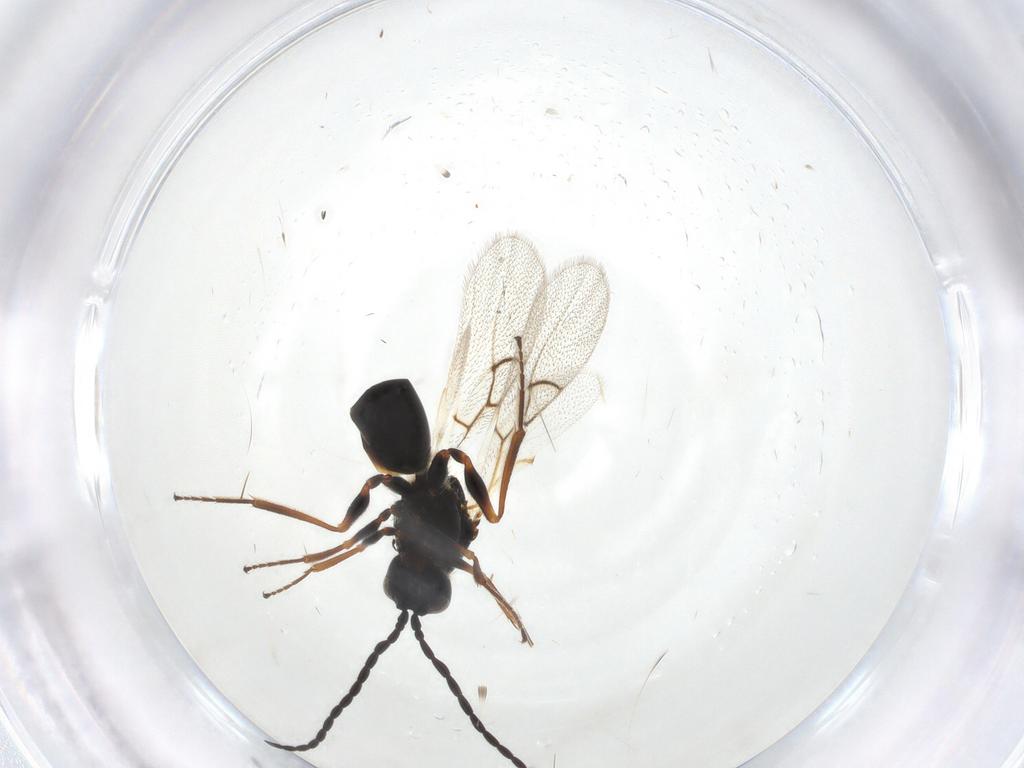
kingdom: Animalia
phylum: Arthropoda
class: Insecta
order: Hymenoptera
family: Figitidae
